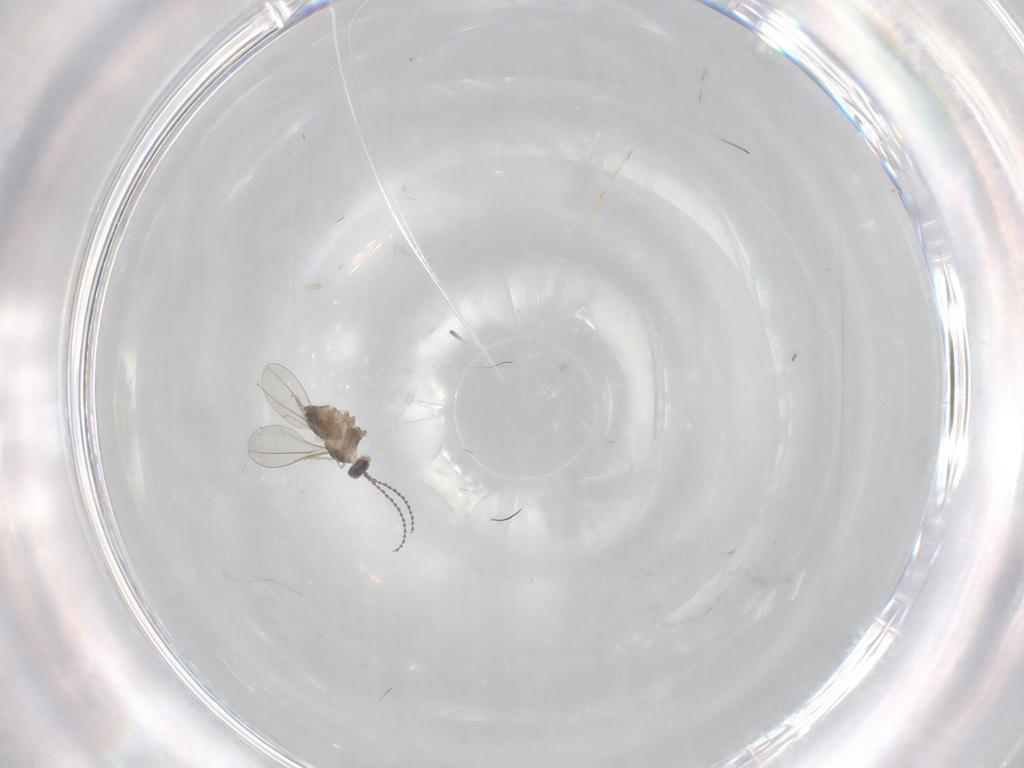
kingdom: Animalia
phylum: Arthropoda
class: Insecta
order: Diptera
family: Cecidomyiidae
